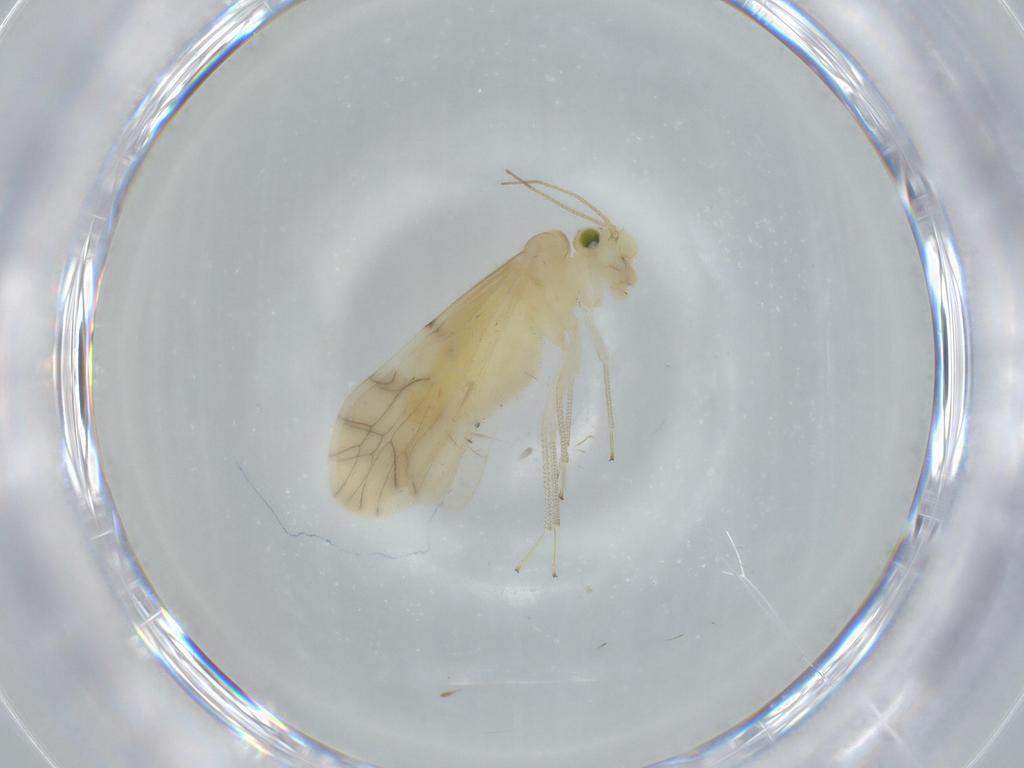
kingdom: Animalia
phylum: Arthropoda
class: Insecta
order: Psocodea
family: Caeciliusidae
